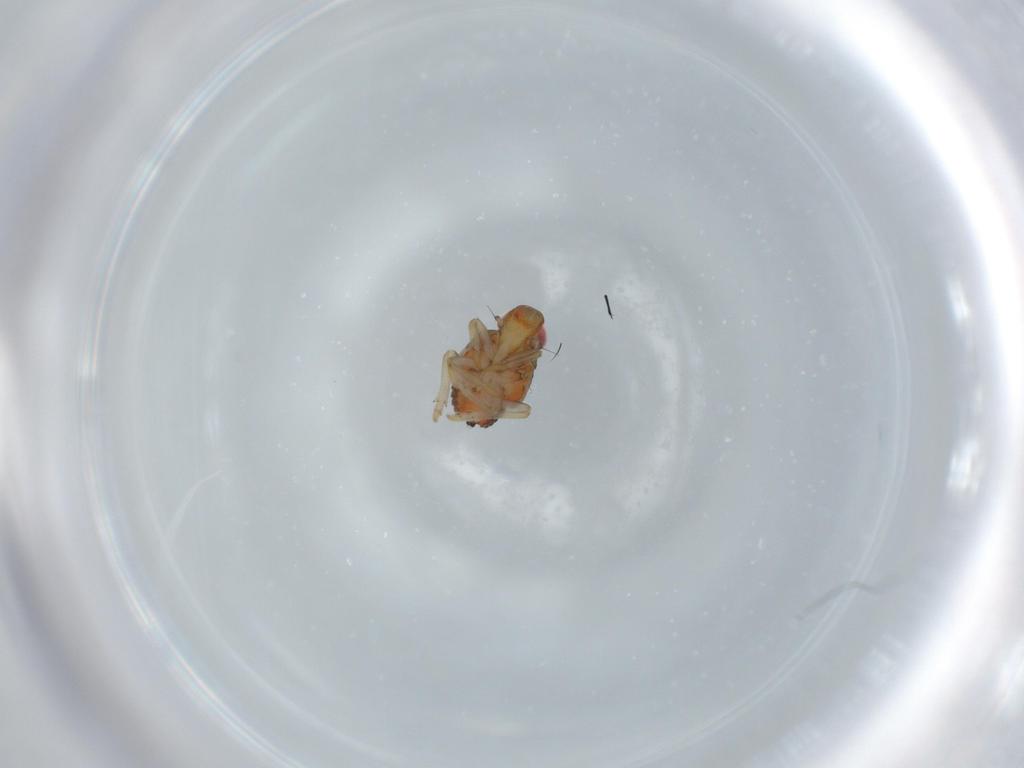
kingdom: Animalia
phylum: Arthropoda
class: Insecta
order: Hemiptera
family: Issidae
